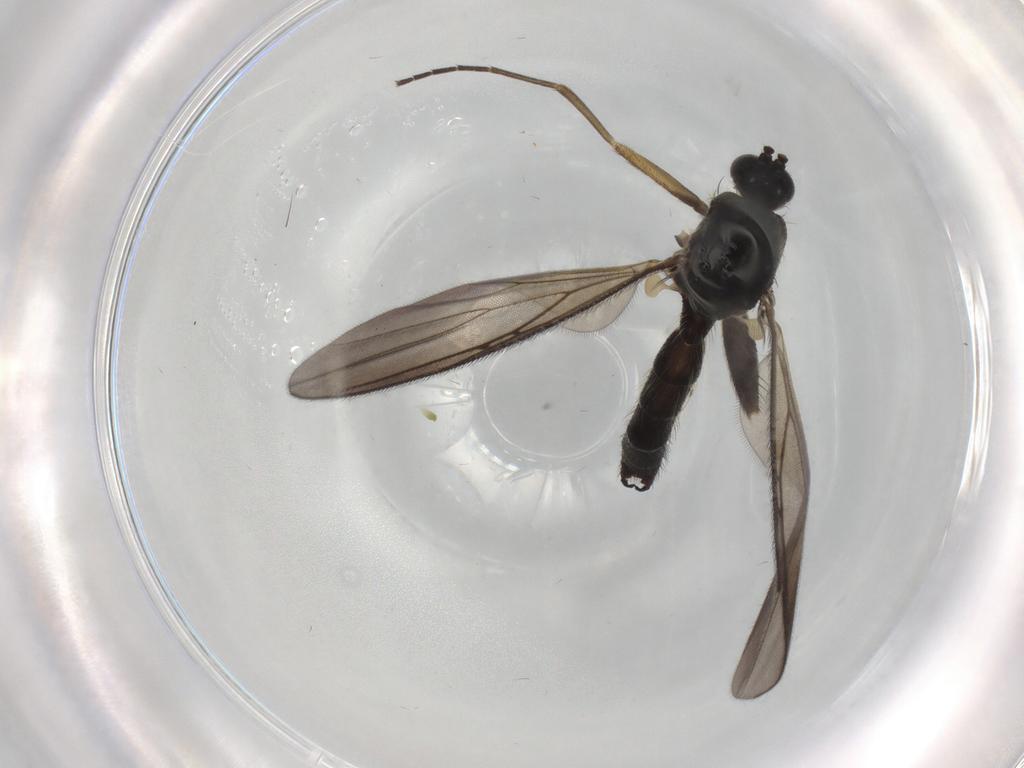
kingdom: Animalia
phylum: Arthropoda
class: Insecta
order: Diptera
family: Mycetophilidae
